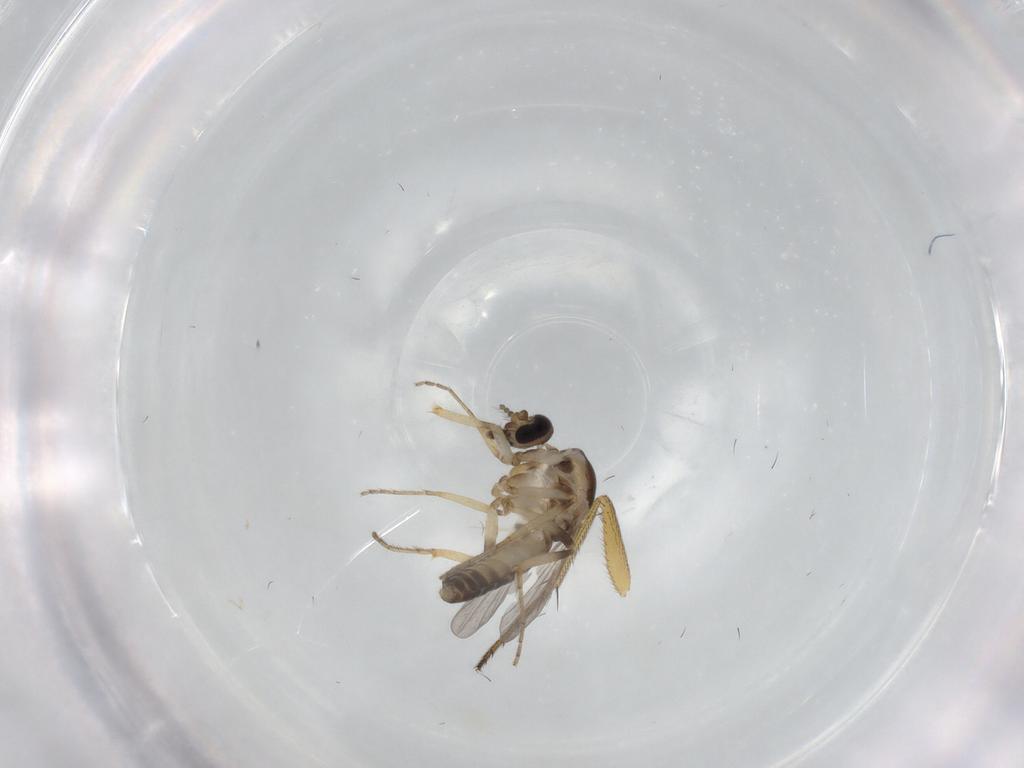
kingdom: Animalia
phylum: Arthropoda
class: Insecta
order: Diptera
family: Ceratopogonidae
